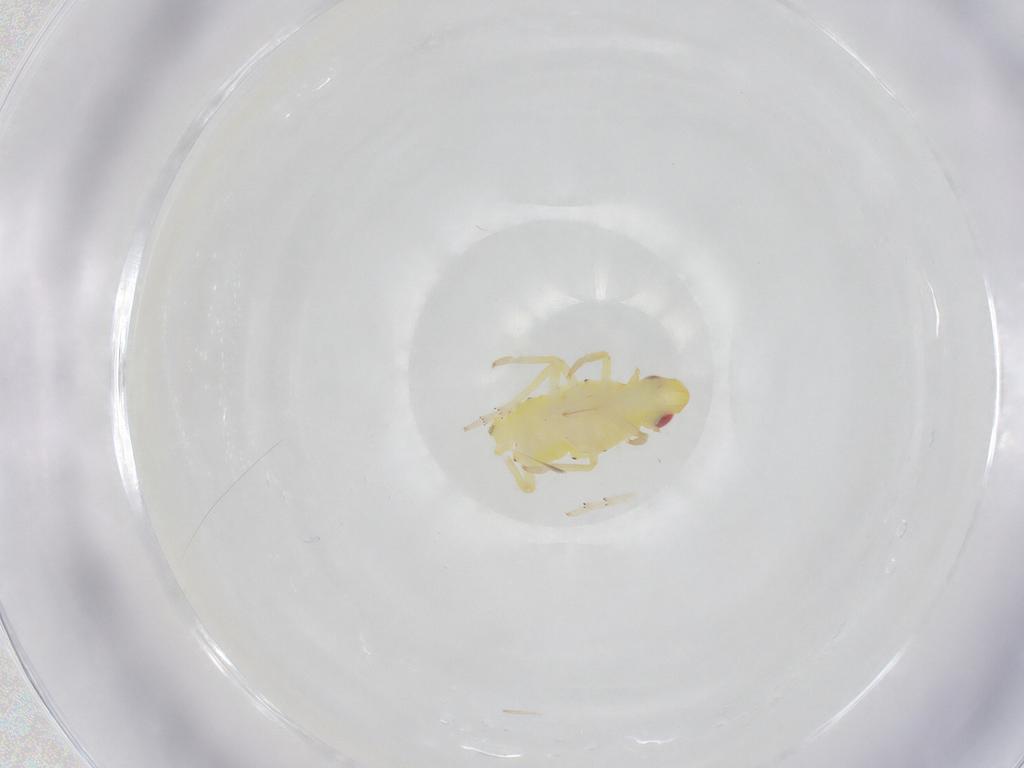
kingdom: Animalia
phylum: Arthropoda
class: Insecta
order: Hemiptera
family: Tropiduchidae
